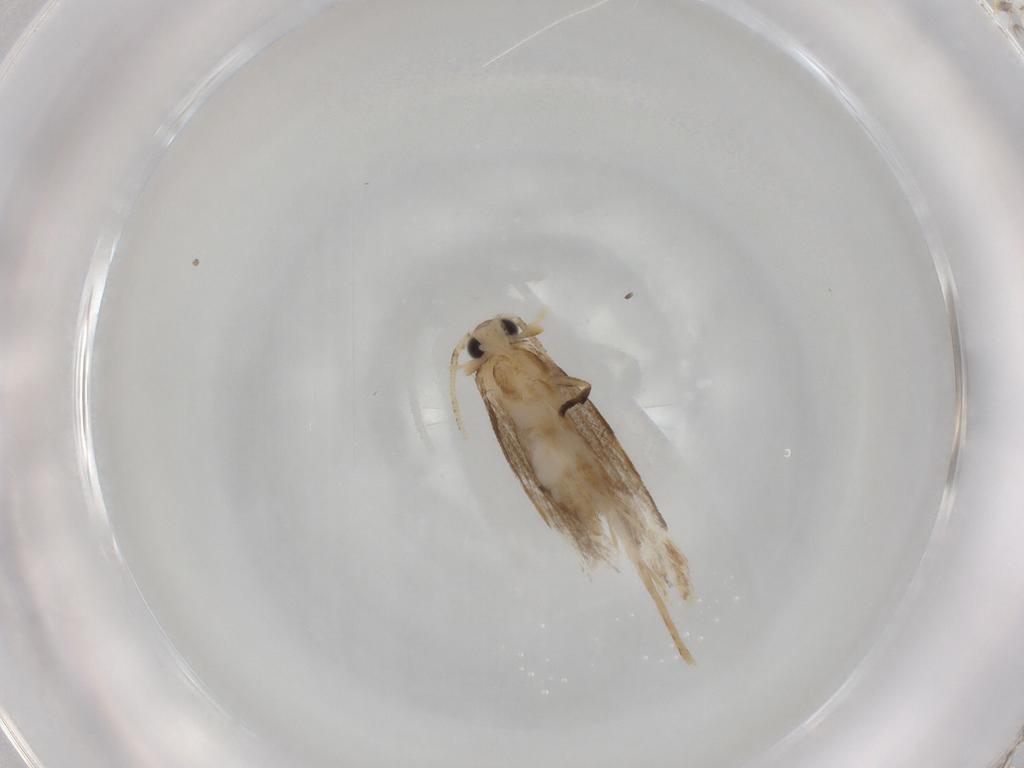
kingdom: Animalia
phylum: Arthropoda
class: Insecta
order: Lepidoptera
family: Dryadaulidae
